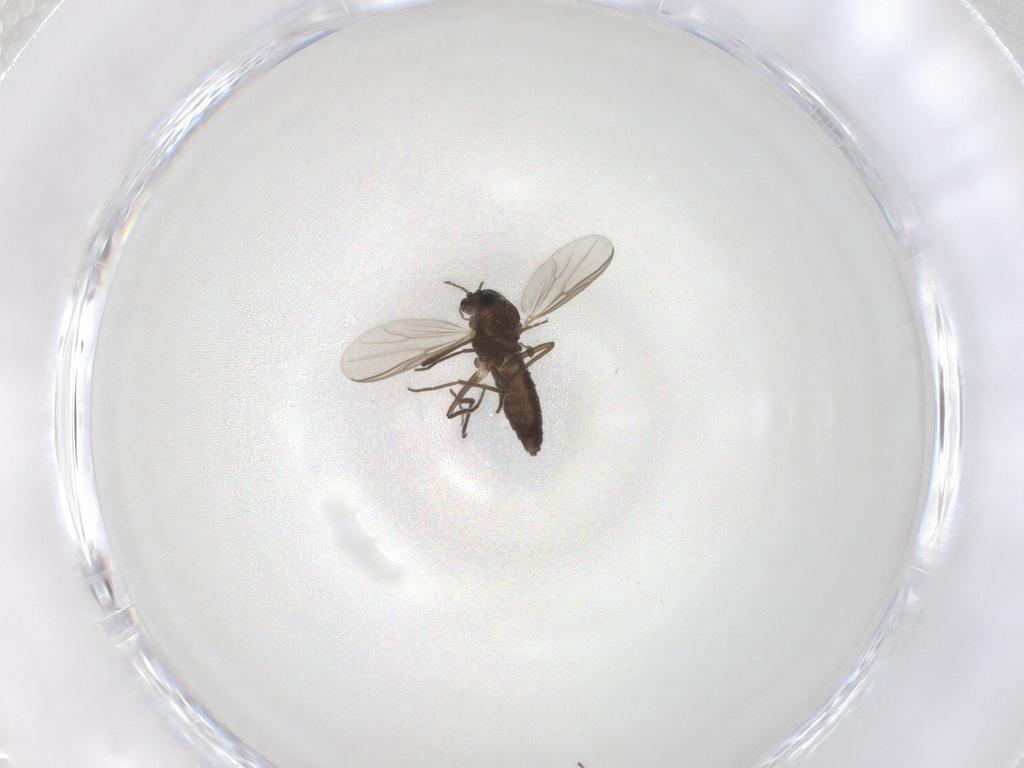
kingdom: Animalia
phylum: Arthropoda
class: Insecta
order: Diptera
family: Chironomidae
